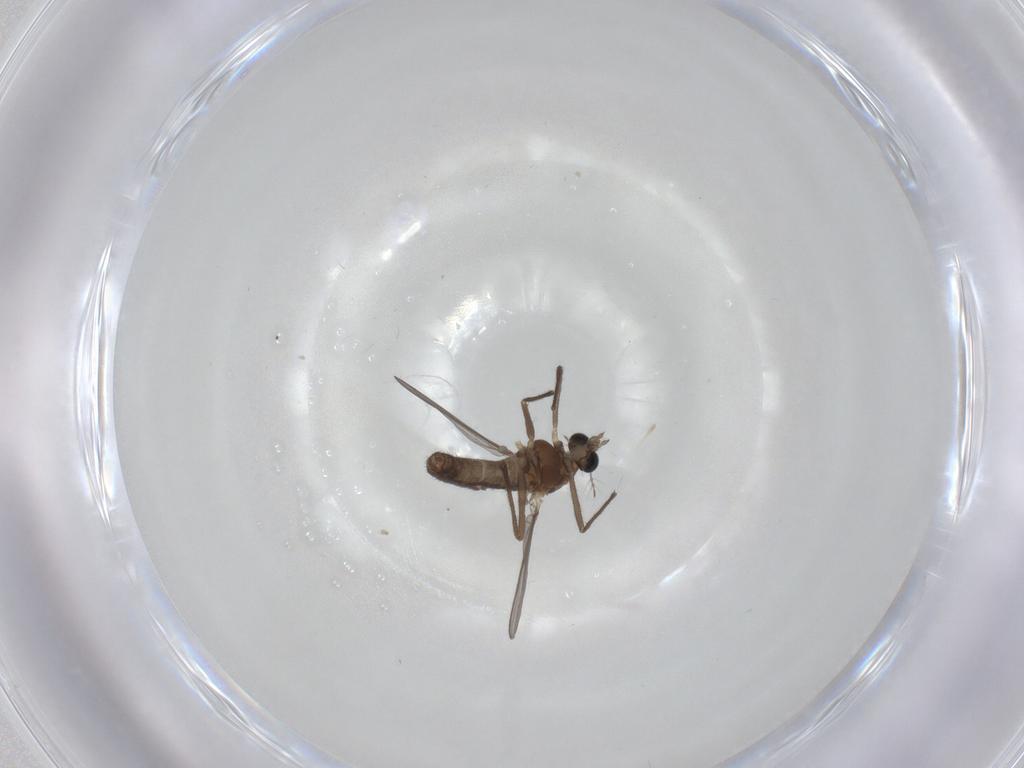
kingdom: Animalia
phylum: Arthropoda
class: Insecta
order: Diptera
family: Chironomidae
